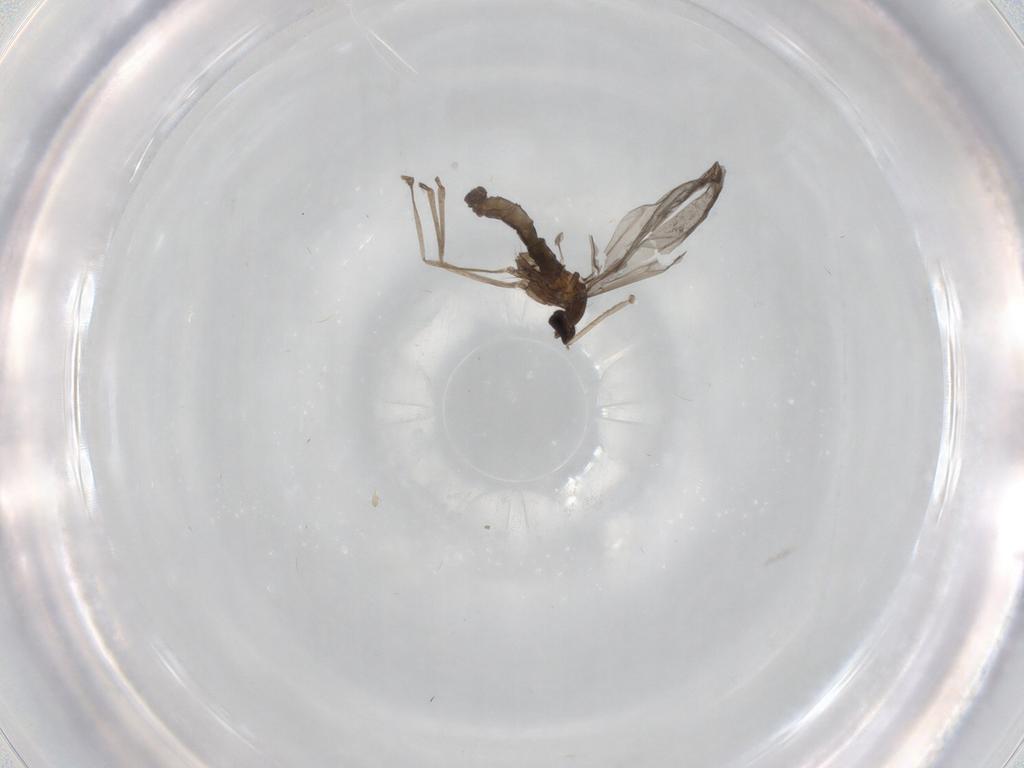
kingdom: Animalia
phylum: Arthropoda
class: Insecta
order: Diptera
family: Cecidomyiidae
